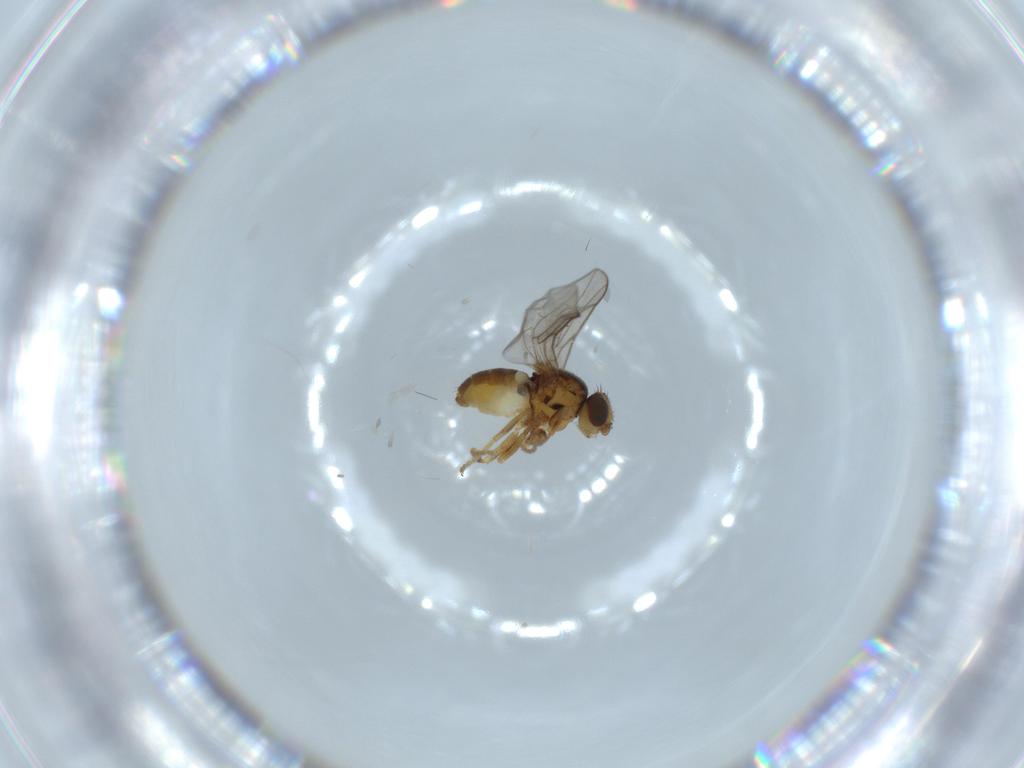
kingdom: Animalia
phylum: Arthropoda
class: Insecta
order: Diptera
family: Chloropidae
